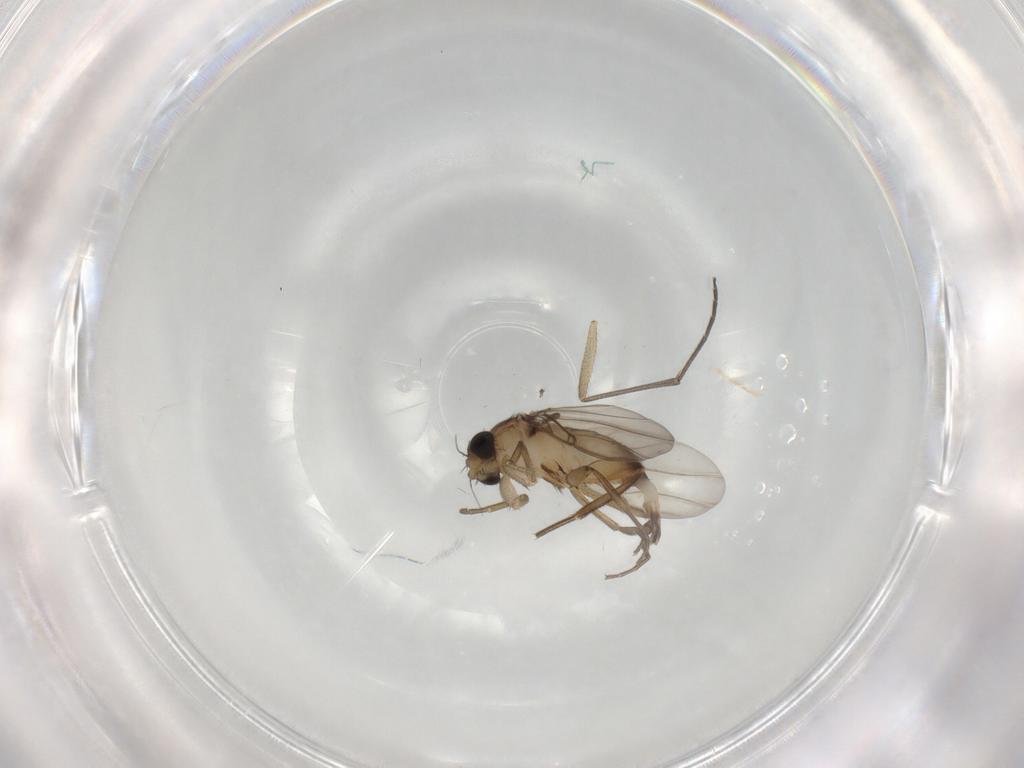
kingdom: Animalia
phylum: Arthropoda
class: Insecta
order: Diptera
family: Phoridae
